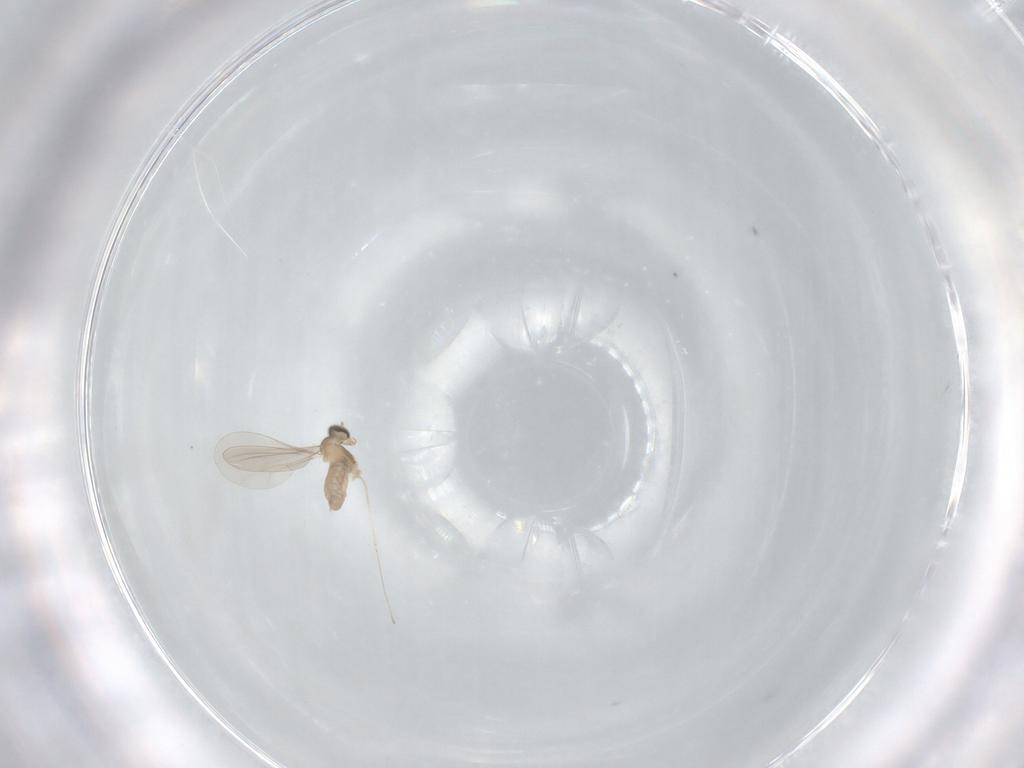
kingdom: Animalia
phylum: Arthropoda
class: Insecta
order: Diptera
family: Cecidomyiidae
